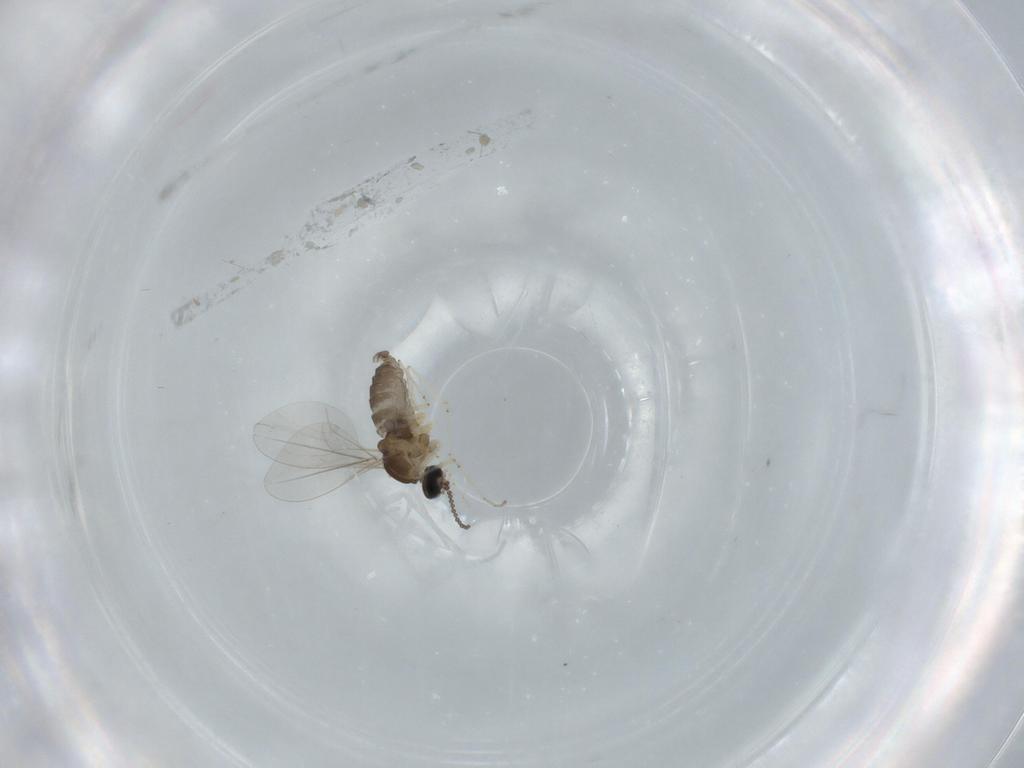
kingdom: Animalia
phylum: Arthropoda
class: Insecta
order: Diptera
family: Cecidomyiidae
